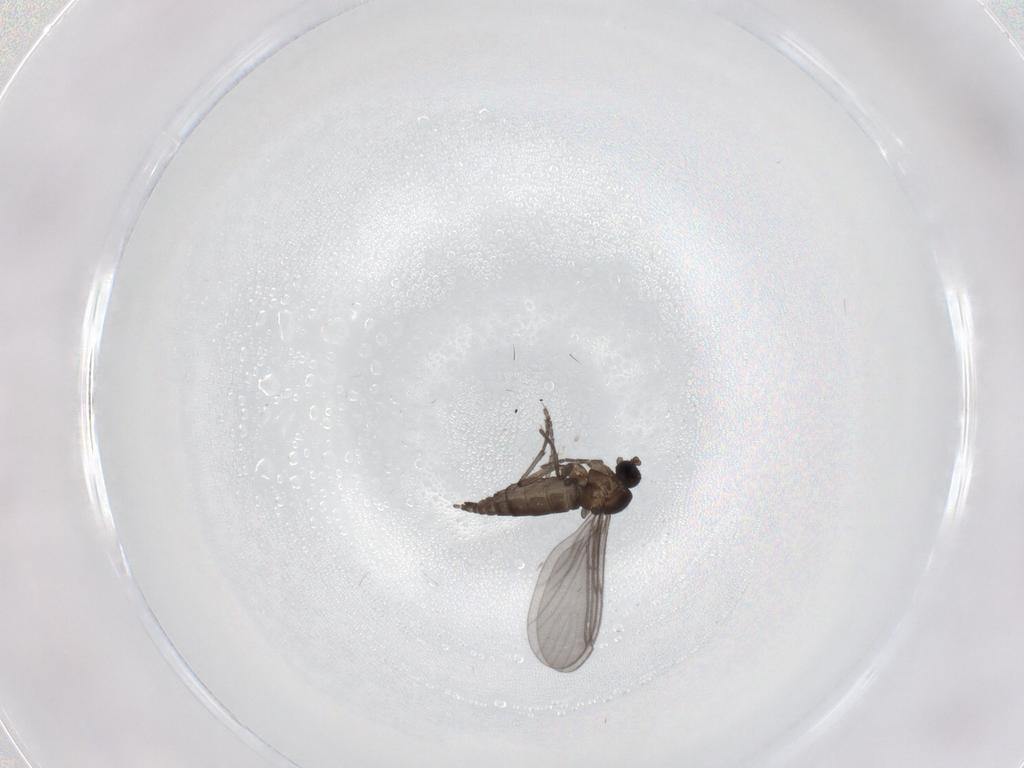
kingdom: Animalia
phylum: Arthropoda
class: Insecta
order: Diptera
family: Sciaridae
